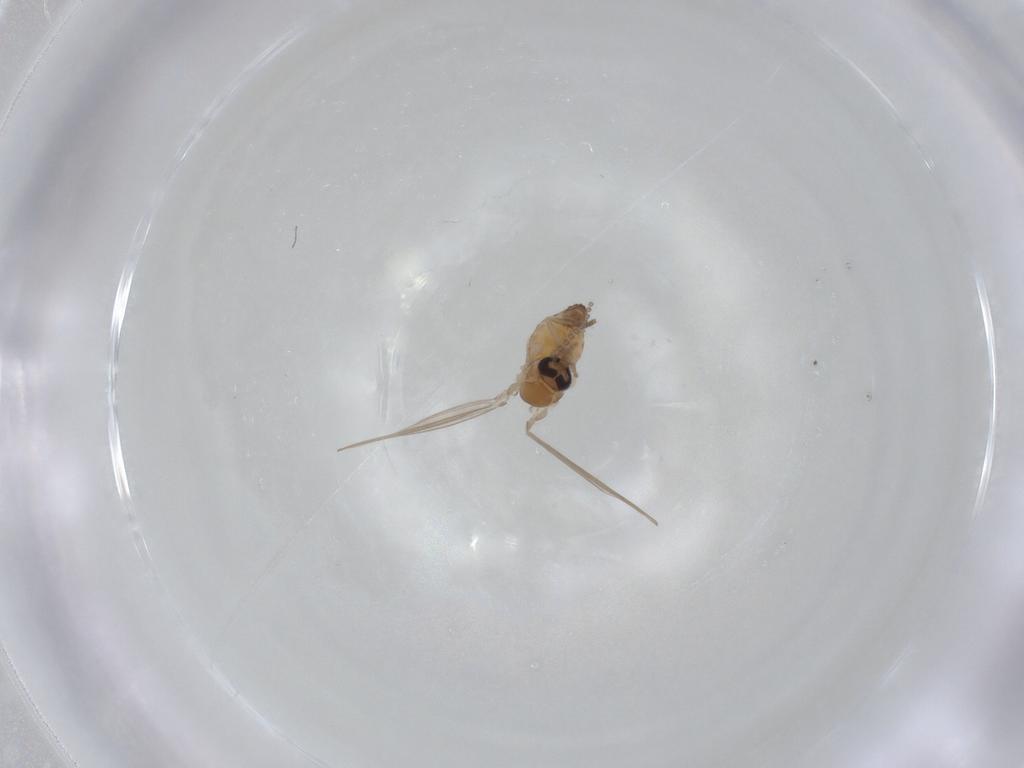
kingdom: Animalia
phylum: Arthropoda
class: Insecta
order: Diptera
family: Psychodidae
